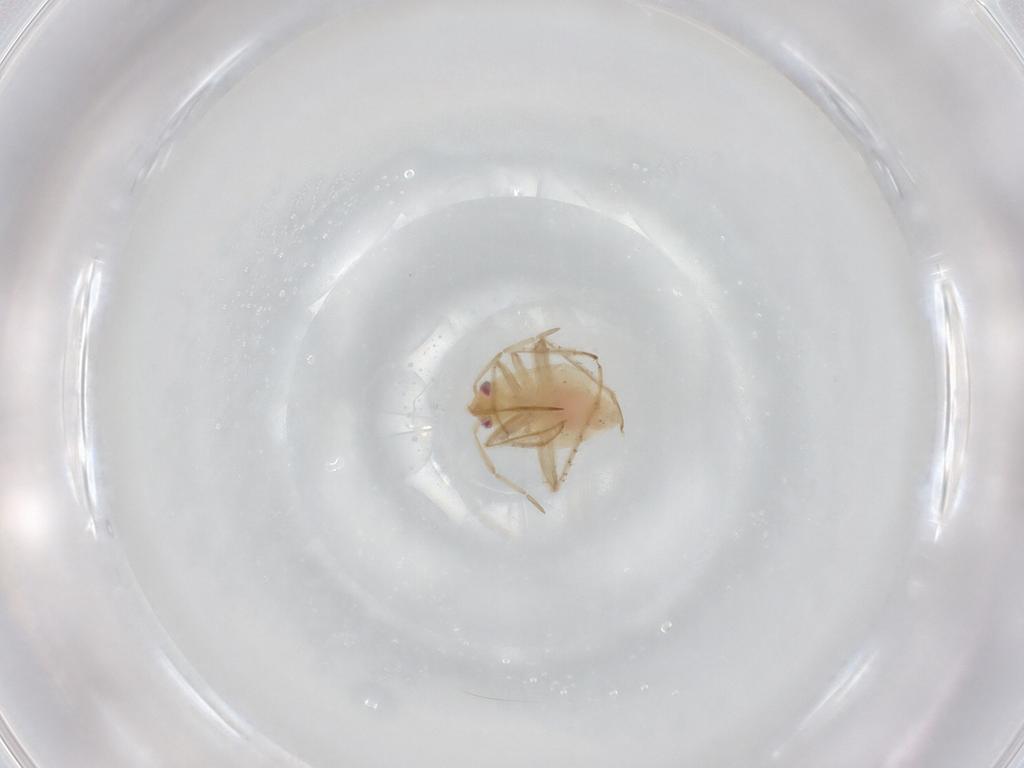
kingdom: Animalia
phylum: Arthropoda
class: Insecta
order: Hemiptera
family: Miridae
